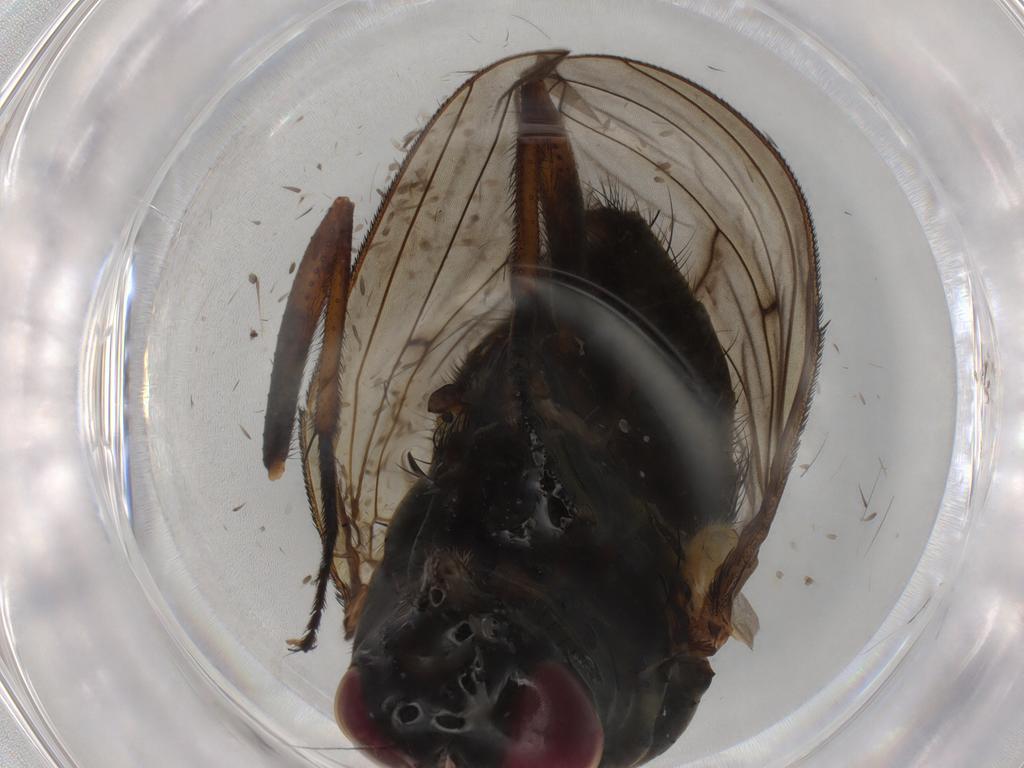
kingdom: Animalia
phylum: Arthropoda
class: Insecta
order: Diptera
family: Muscidae
